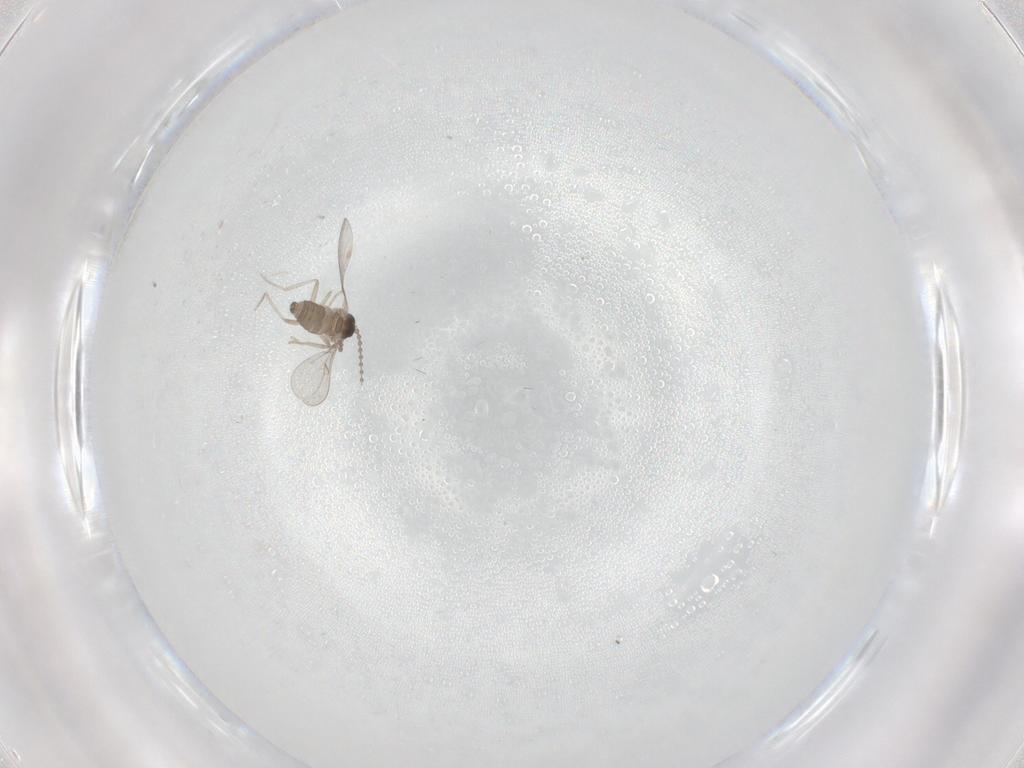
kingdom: Animalia
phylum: Arthropoda
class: Insecta
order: Diptera
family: Cecidomyiidae
